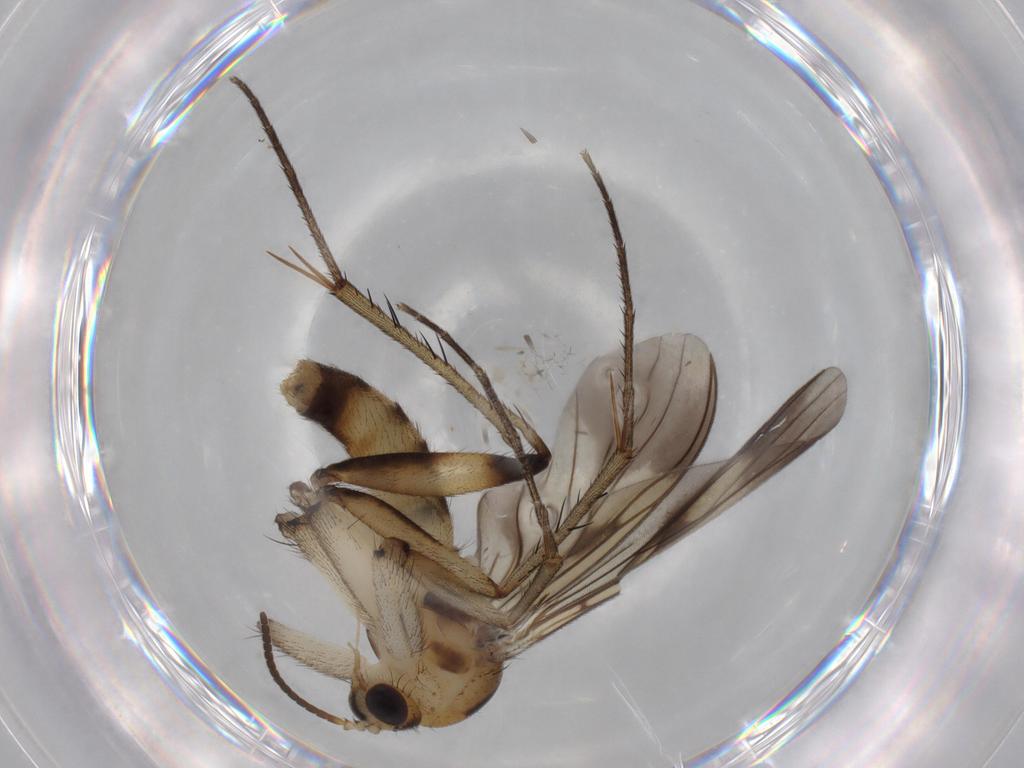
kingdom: Animalia
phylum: Arthropoda
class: Insecta
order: Diptera
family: Mycetophilidae
